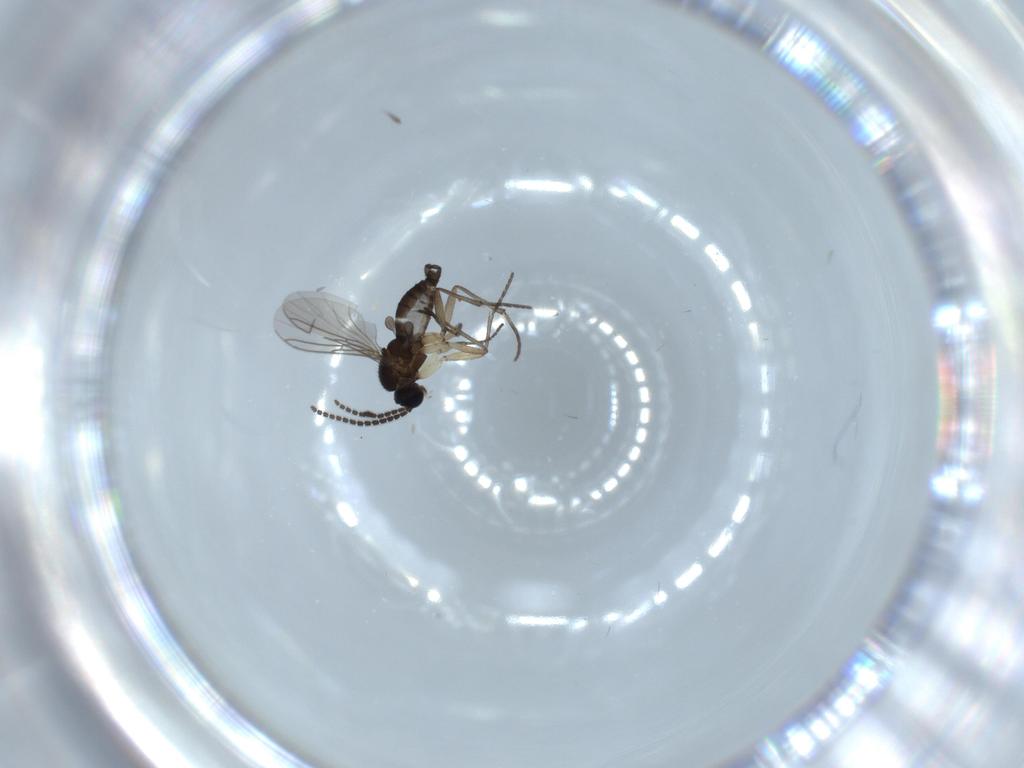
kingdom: Animalia
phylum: Arthropoda
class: Insecta
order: Diptera
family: Sciaridae
